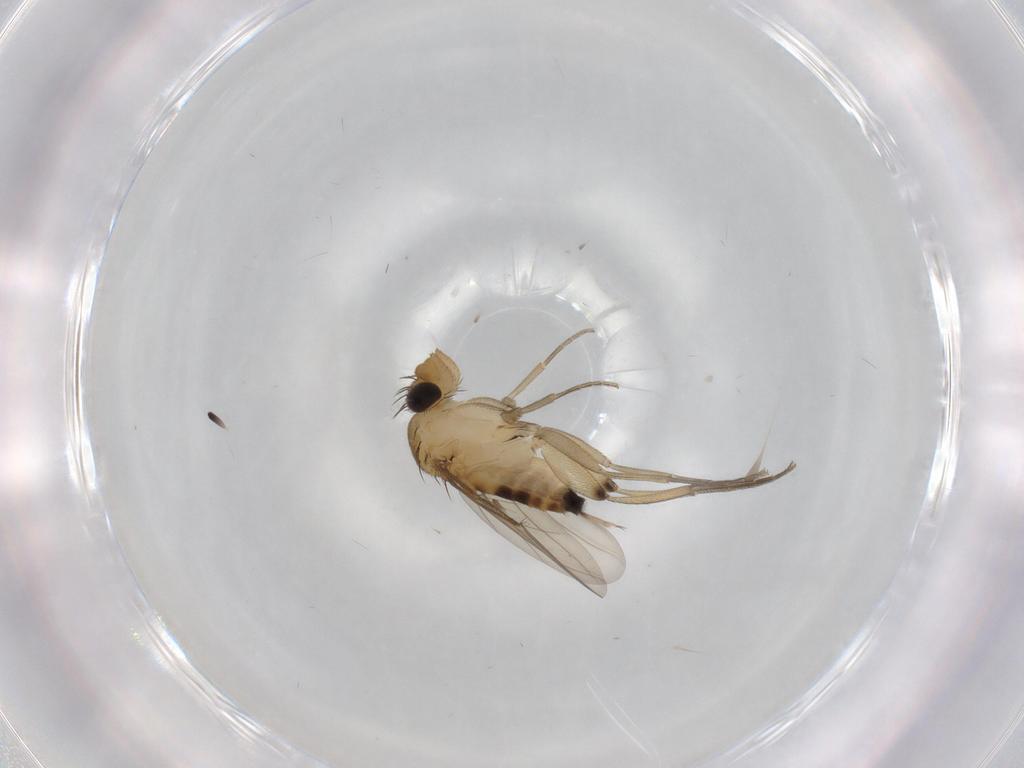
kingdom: Animalia
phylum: Arthropoda
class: Insecta
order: Diptera
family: Phoridae
